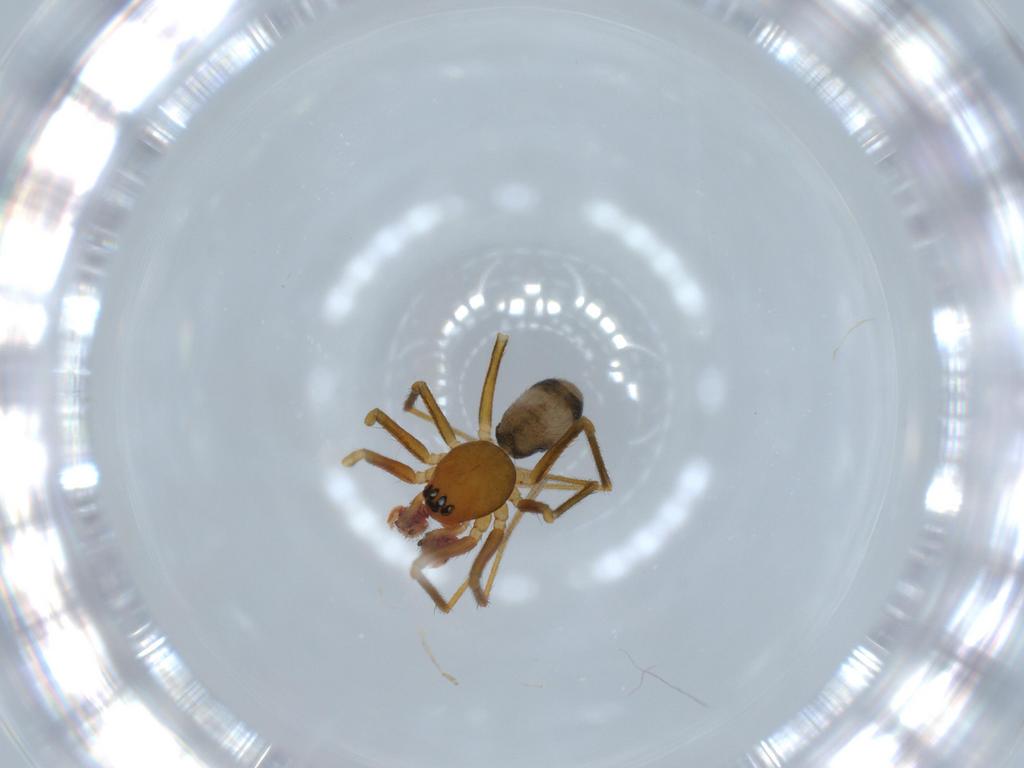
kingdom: Animalia
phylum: Arthropoda
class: Arachnida
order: Araneae
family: Linyphiidae
